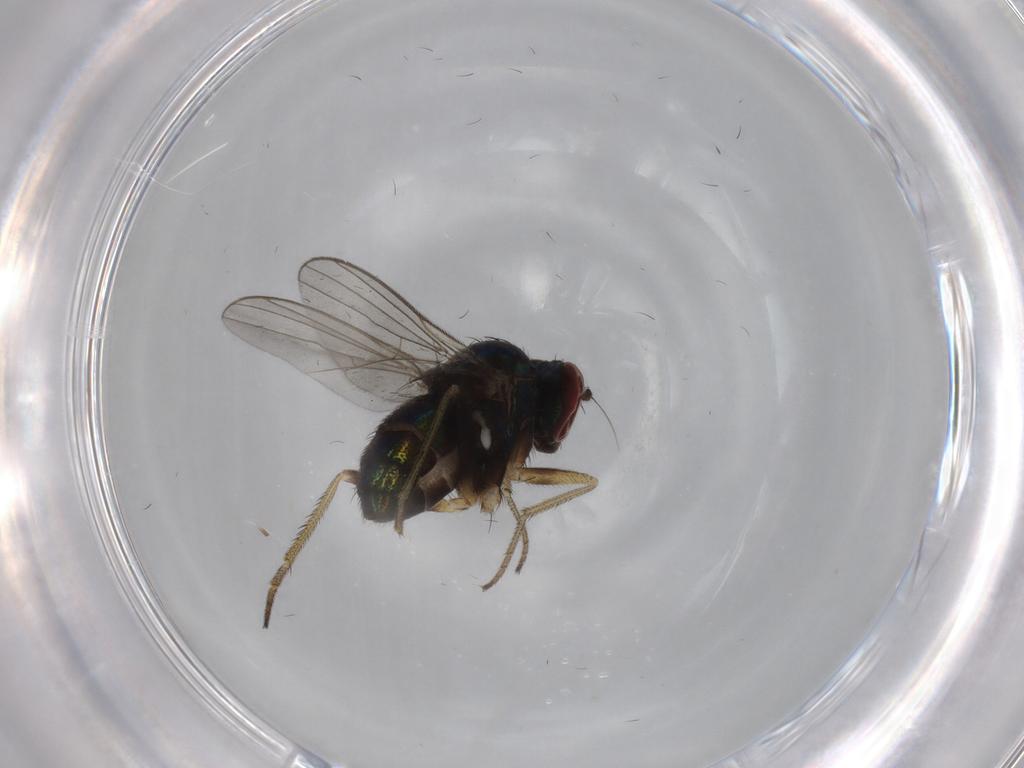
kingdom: Animalia
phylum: Arthropoda
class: Insecta
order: Diptera
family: Dolichopodidae
